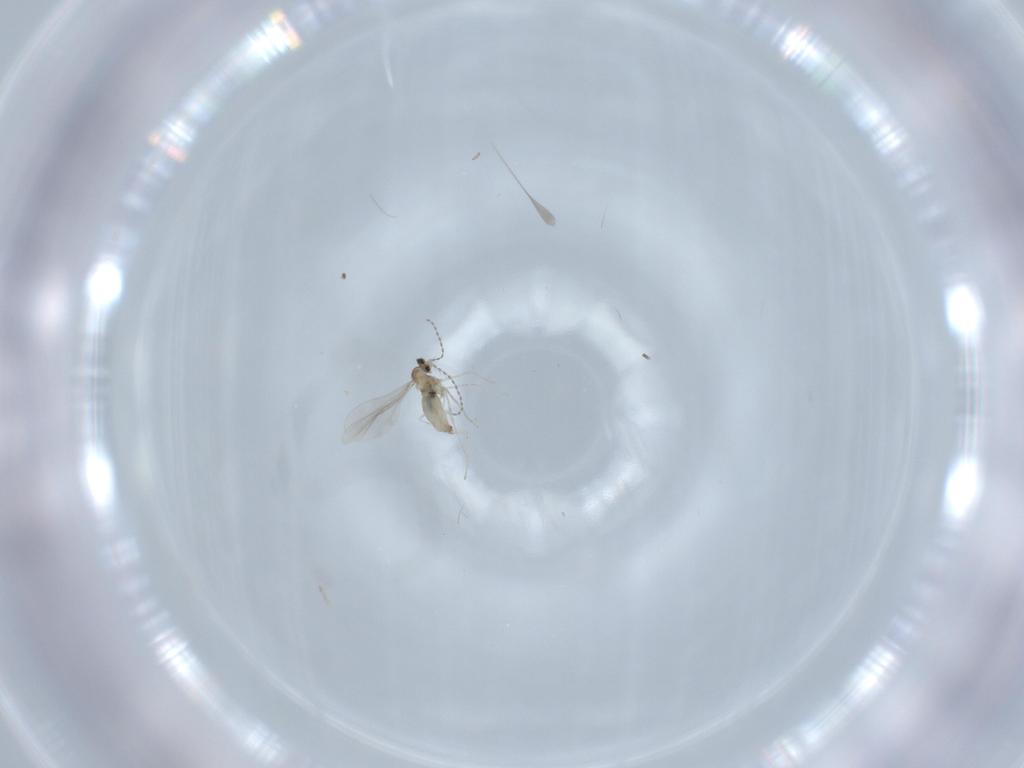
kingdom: Animalia
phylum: Arthropoda
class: Insecta
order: Diptera
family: Cecidomyiidae
